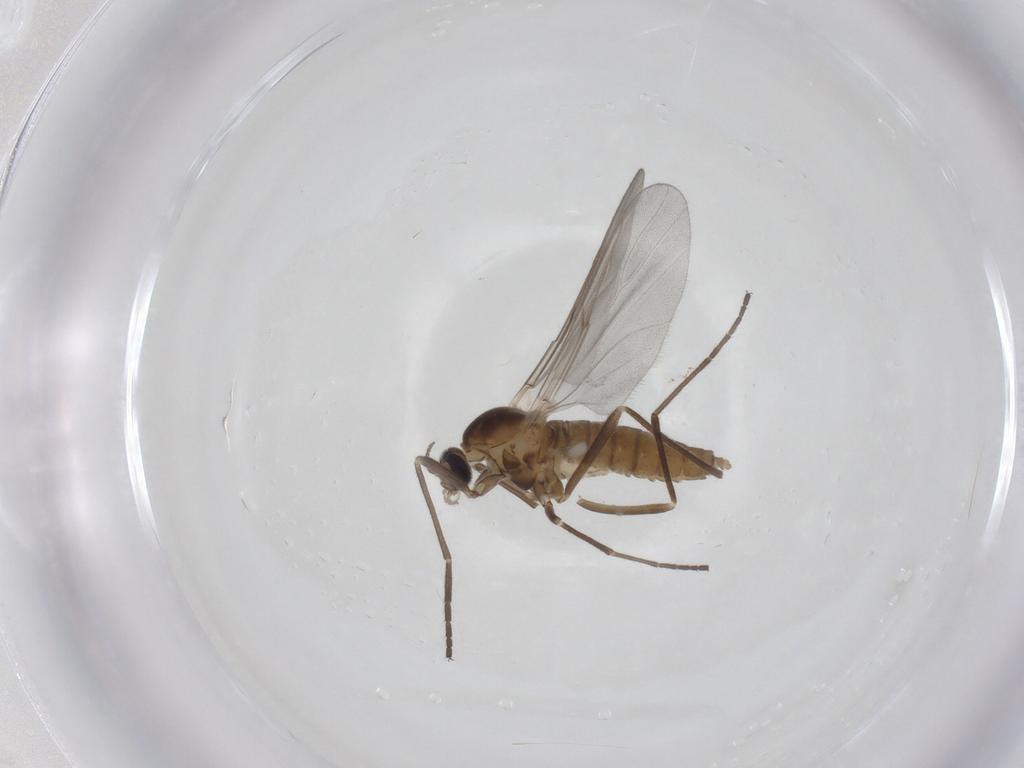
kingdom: Animalia
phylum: Arthropoda
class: Insecta
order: Diptera
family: Cecidomyiidae
